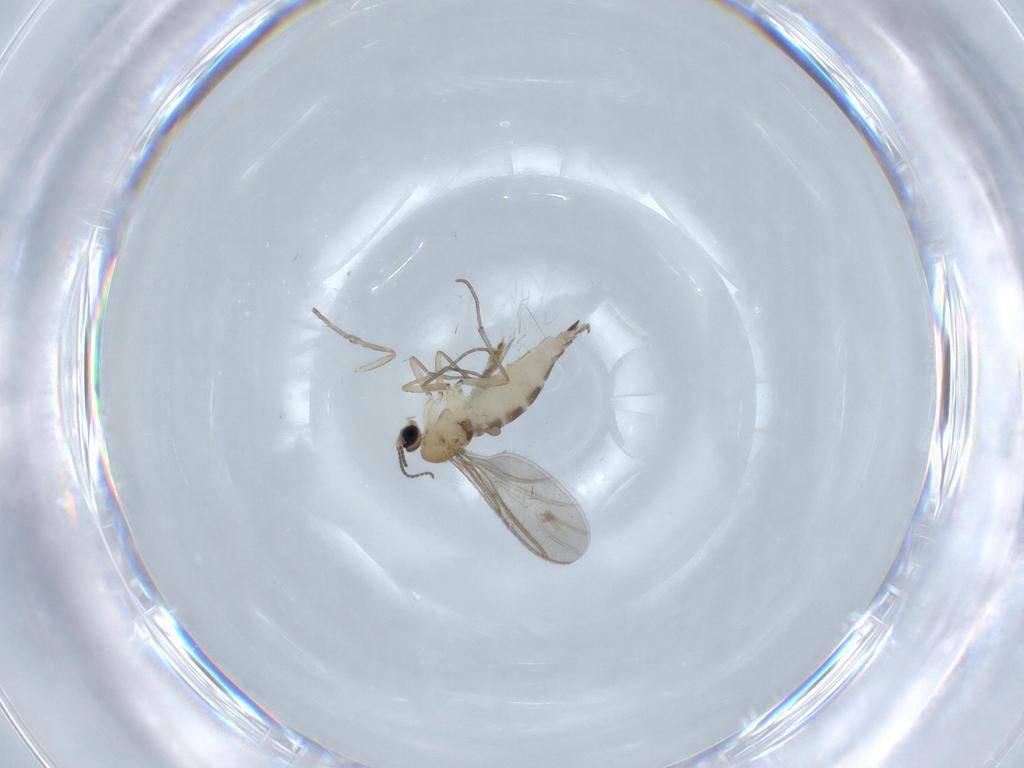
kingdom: Animalia
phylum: Arthropoda
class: Insecta
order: Diptera
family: Sciaridae
